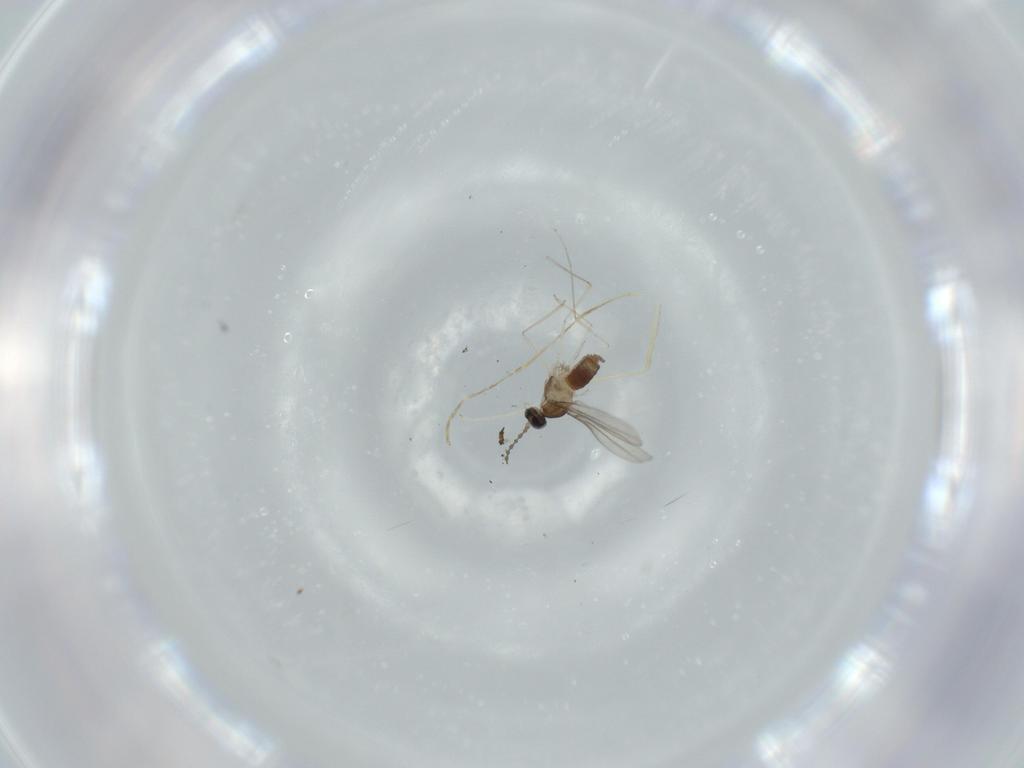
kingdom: Animalia
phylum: Arthropoda
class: Insecta
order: Diptera
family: Cecidomyiidae
